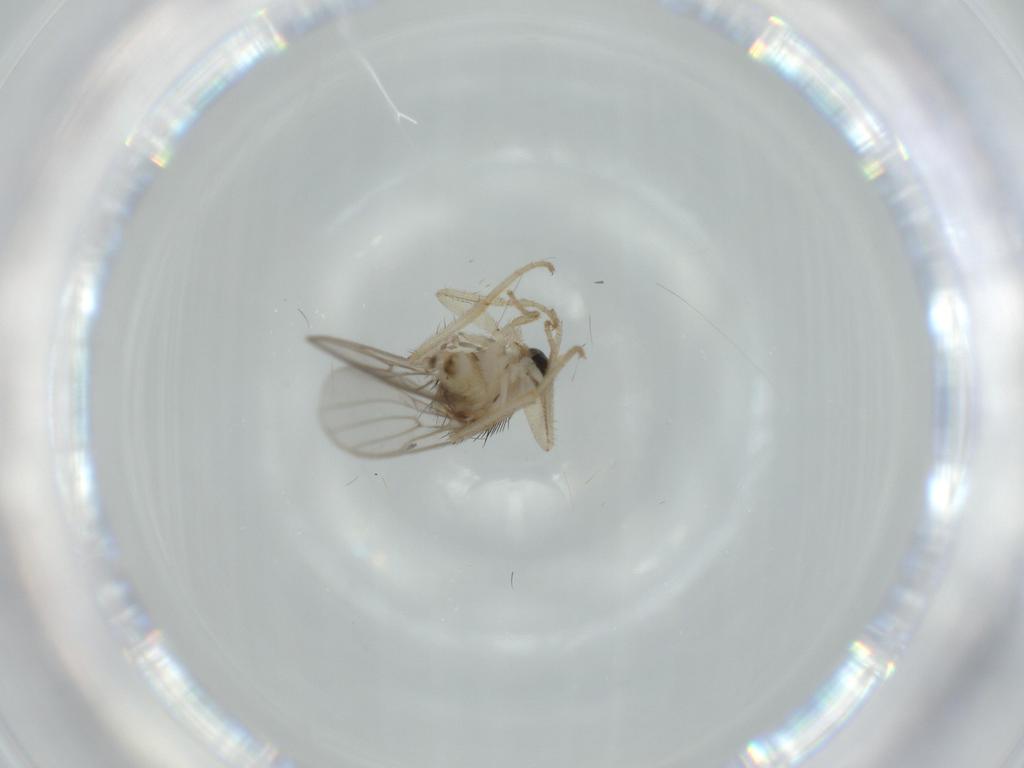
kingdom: Animalia
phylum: Arthropoda
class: Insecta
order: Diptera
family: Hybotidae
